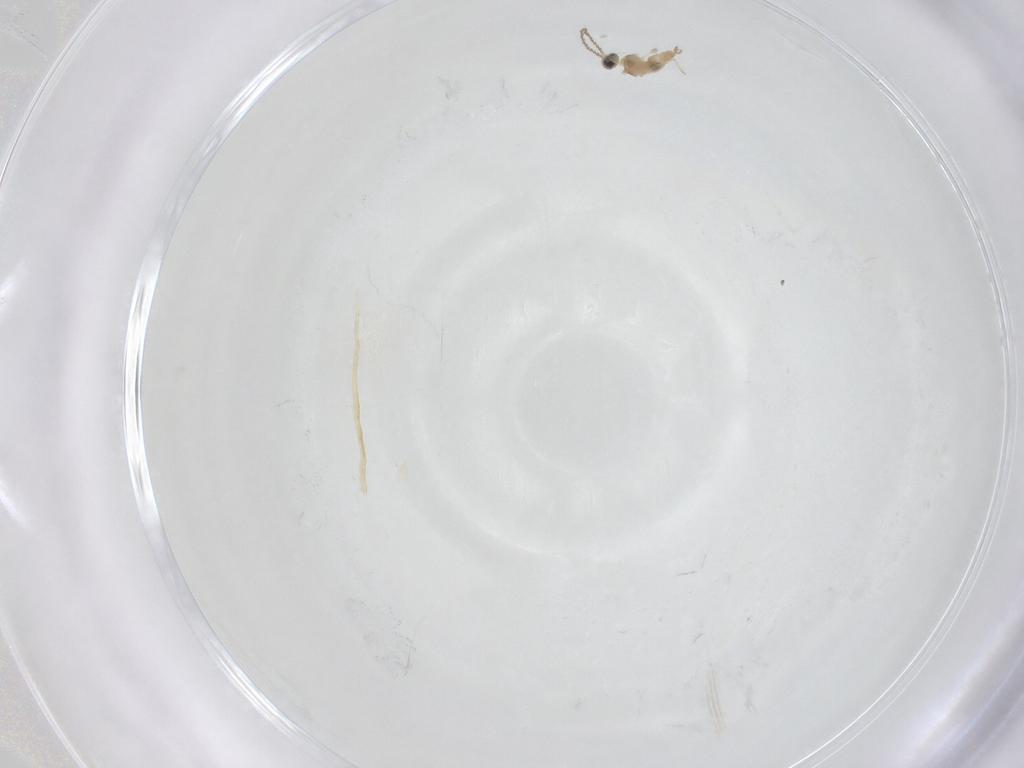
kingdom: Animalia
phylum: Arthropoda
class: Insecta
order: Diptera
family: Cecidomyiidae
